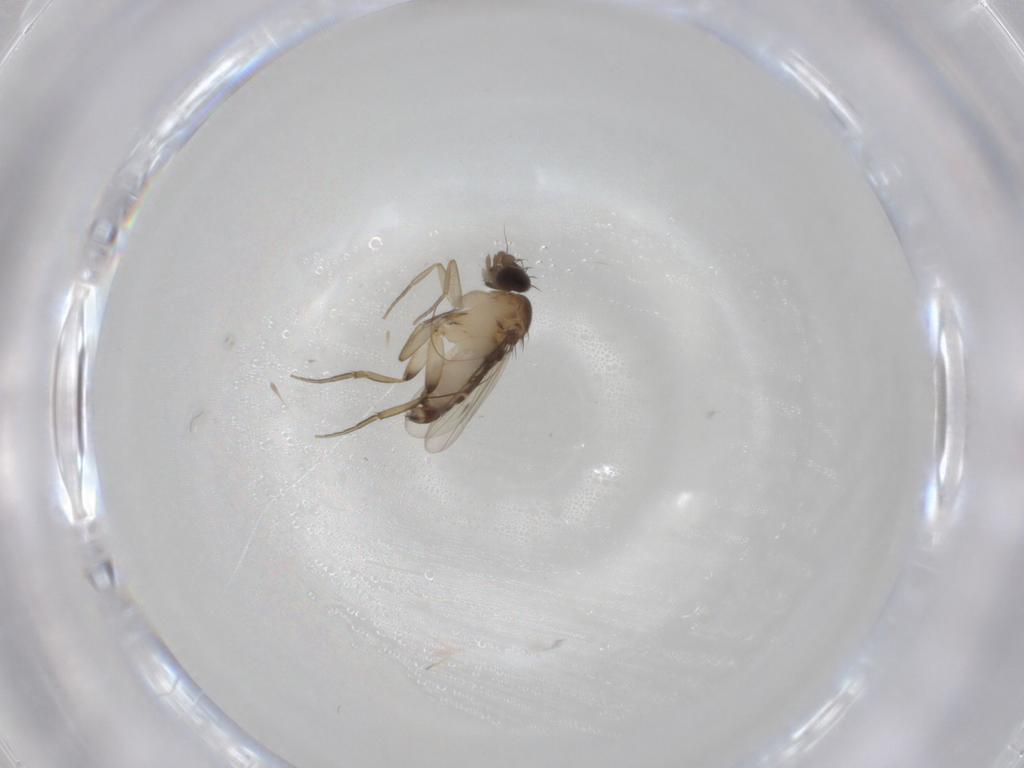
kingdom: Animalia
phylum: Arthropoda
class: Insecta
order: Diptera
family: Phoridae
